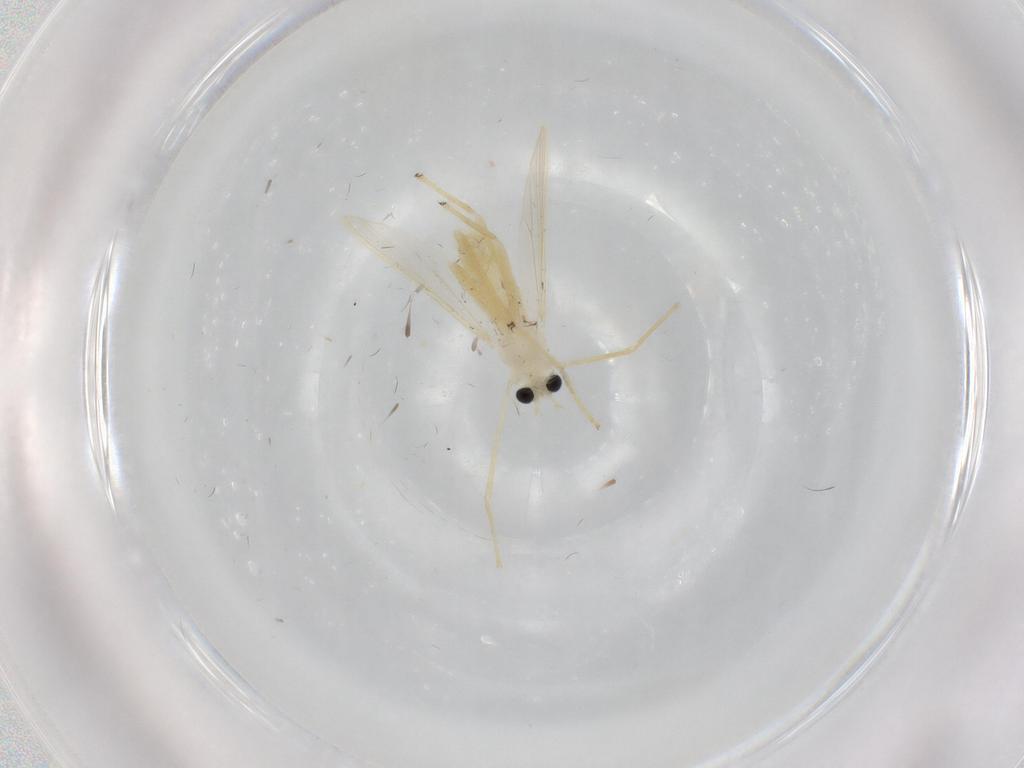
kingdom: Animalia
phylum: Arthropoda
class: Insecta
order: Diptera
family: Chironomidae
